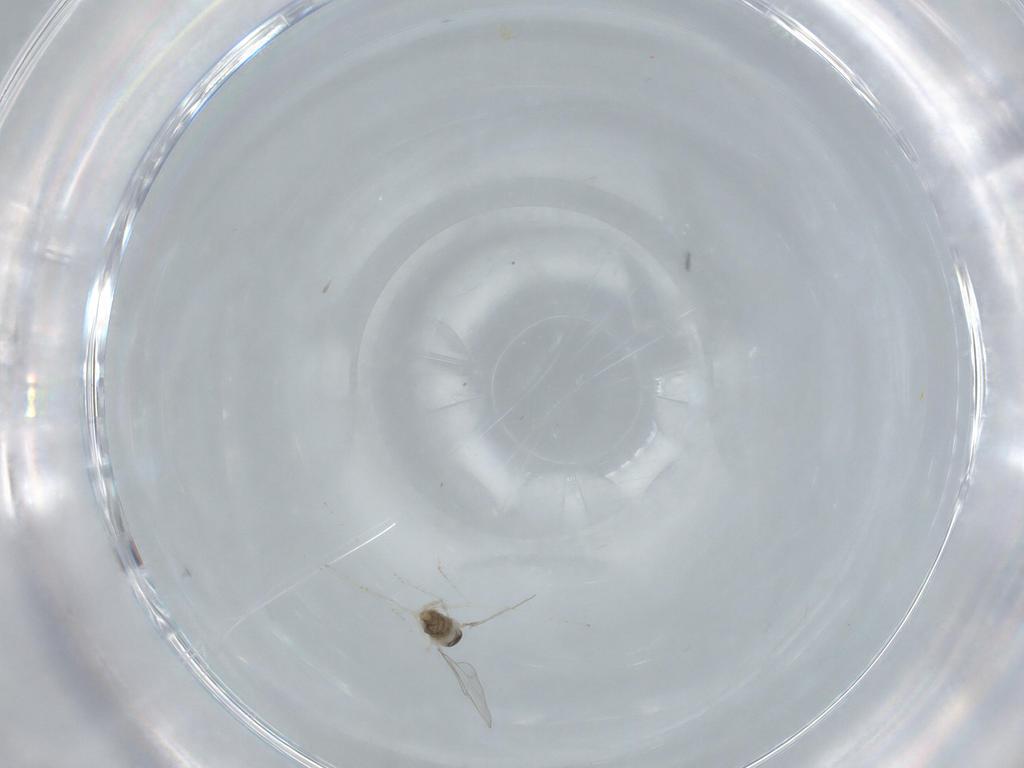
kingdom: Animalia
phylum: Arthropoda
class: Insecta
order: Diptera
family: Cecidomyiidae
